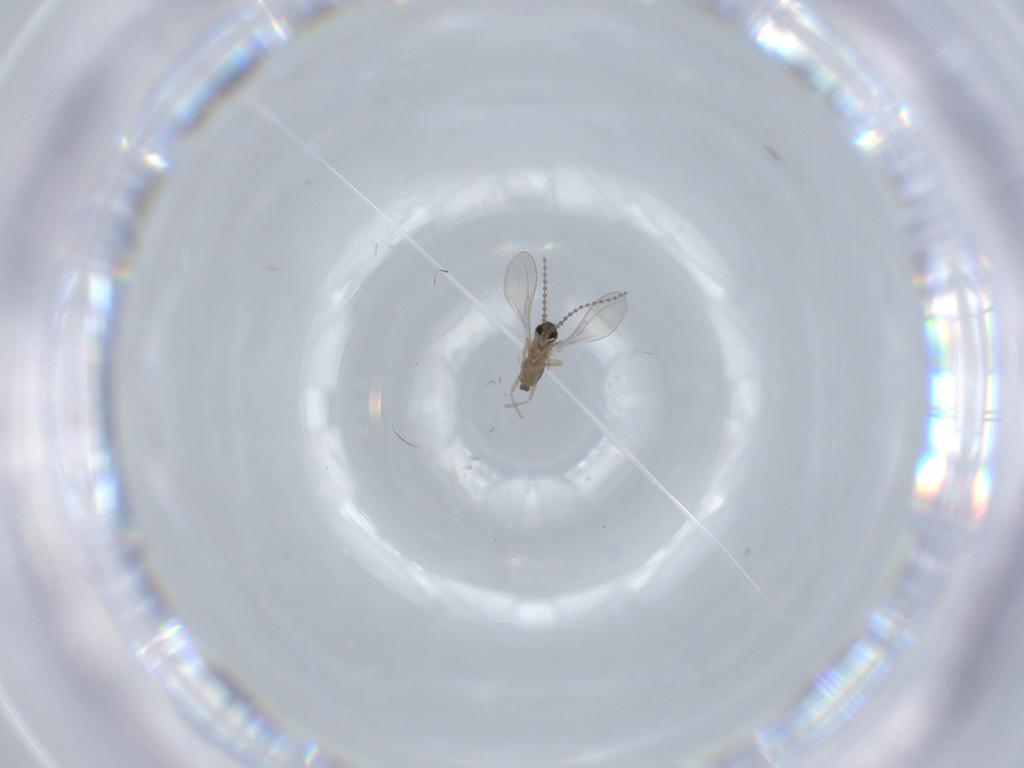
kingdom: Animalia
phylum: Arthropoda
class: Insecta
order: Diptera
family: Cecidomyiidae
